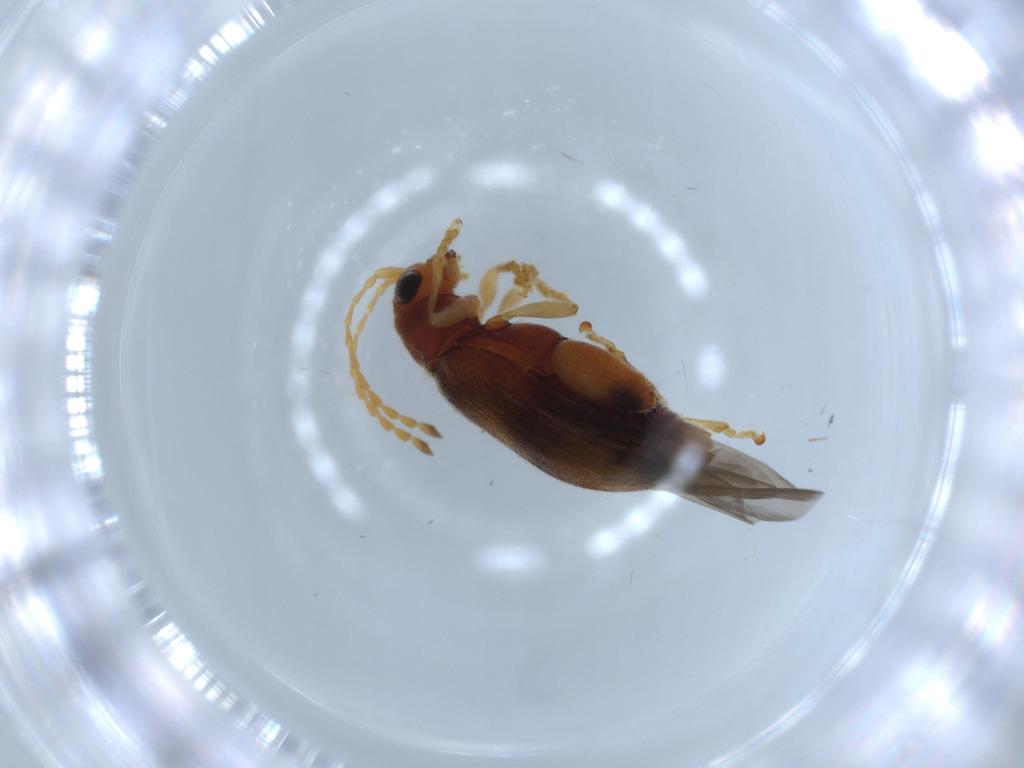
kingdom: Animalia
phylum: Arthropoda
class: Insecta
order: Coleoptera
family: Chrysomelidae
